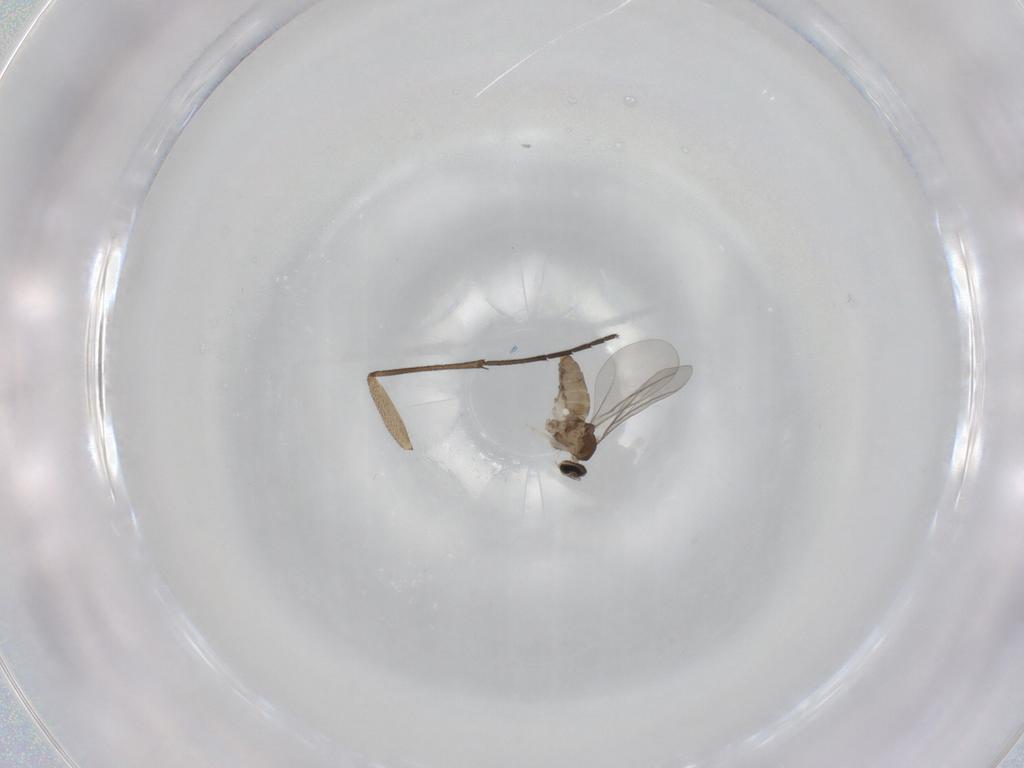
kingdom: Animalia
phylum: Arthropoda
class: Insecta
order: Diptera
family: Cecidomyiidae
